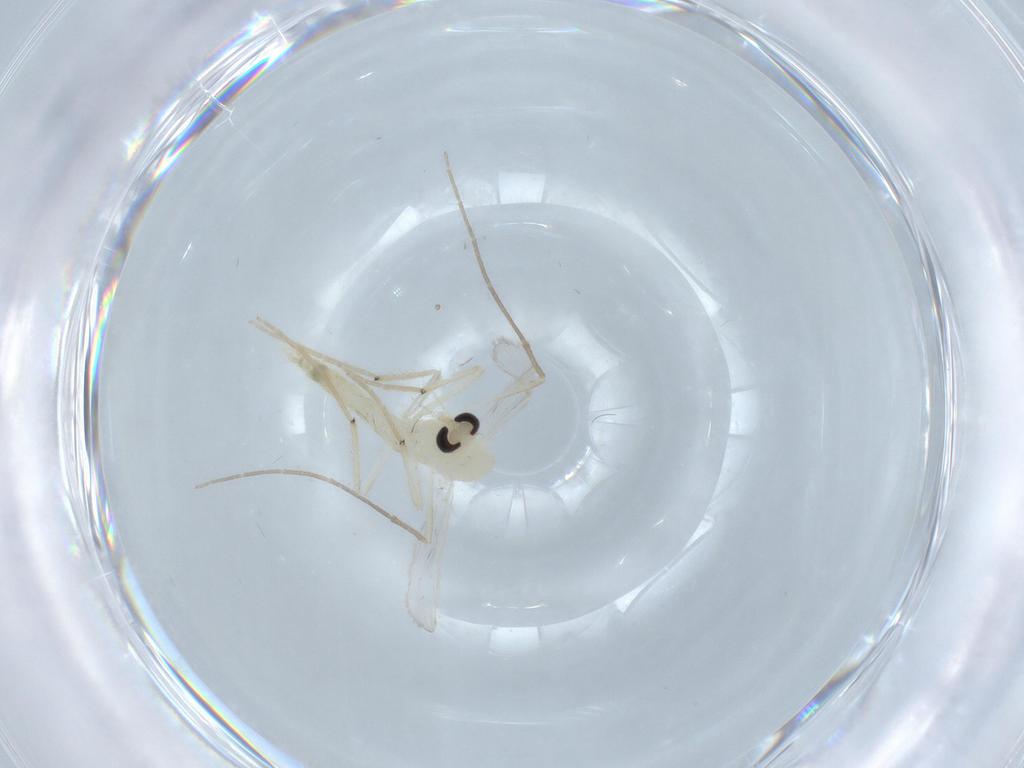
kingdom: Animalia
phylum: Arthropoda
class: Insecta
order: Diptera
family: Chironomidae
